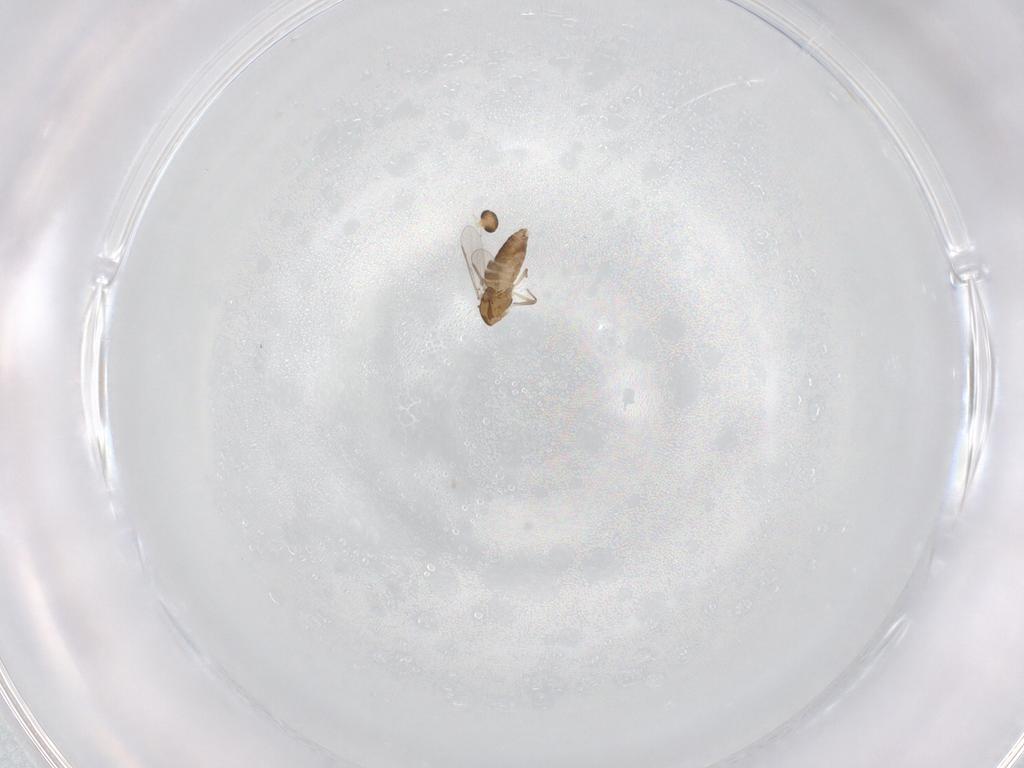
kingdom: Animalia
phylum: Arthropoda
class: Insecta
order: Diptera
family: Chironomidae
